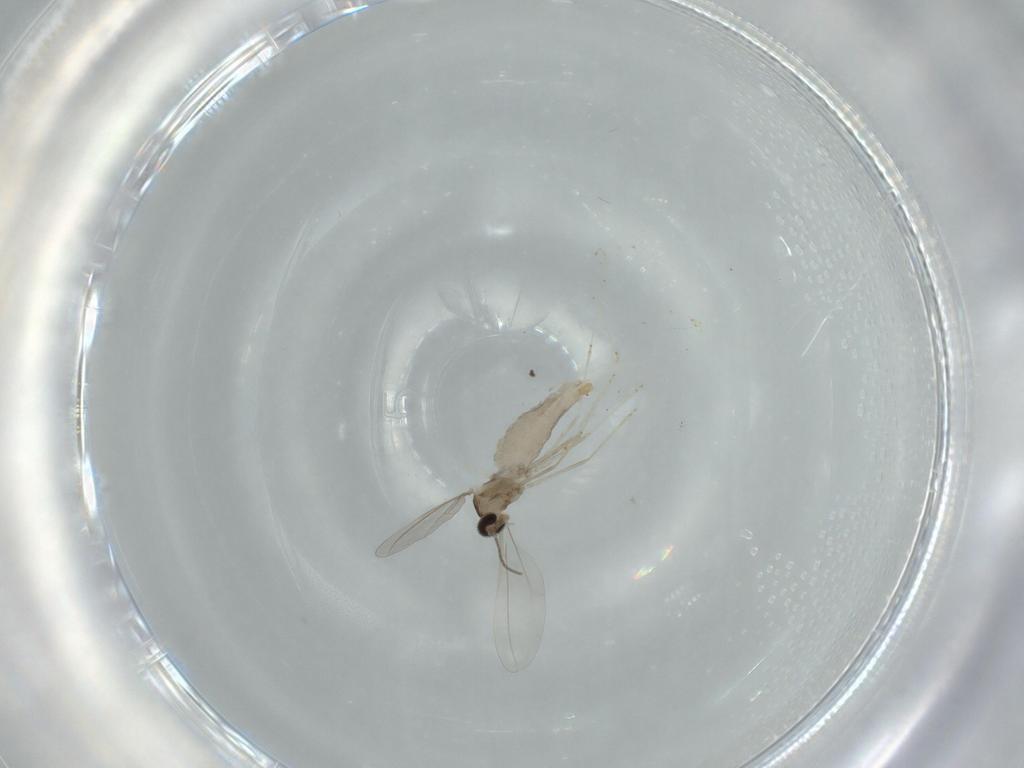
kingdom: Animalia
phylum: Arthropoda
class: Insecta
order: Diptera
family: Cecidomyiidae
